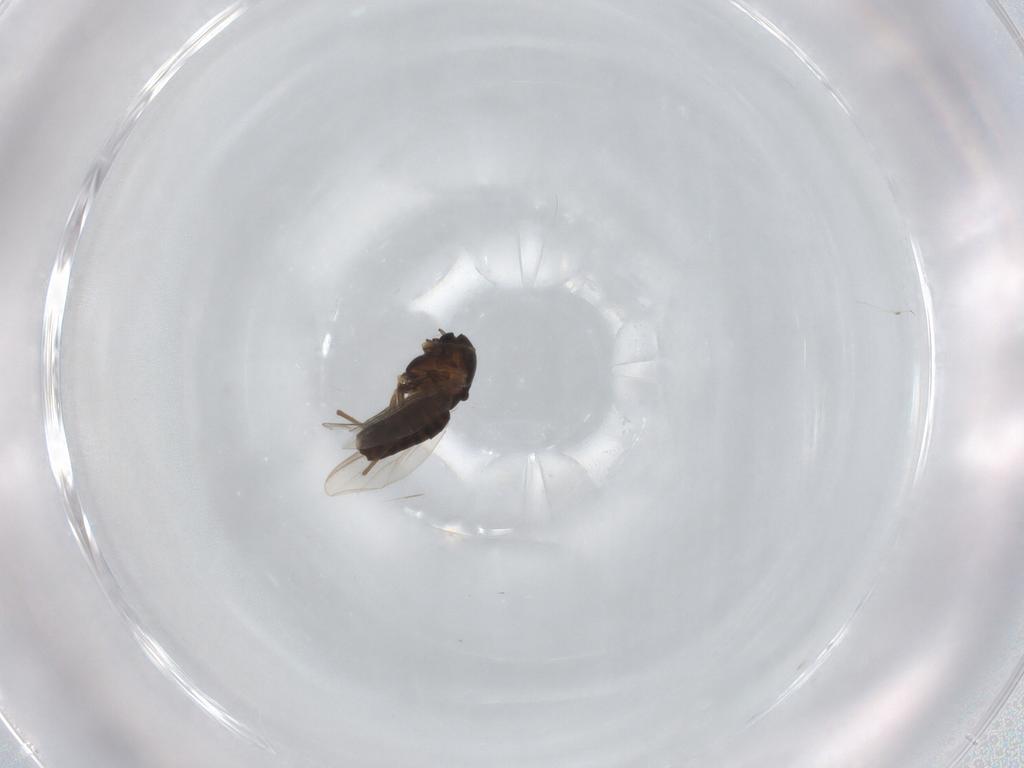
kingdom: Animalia
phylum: Arthropoda
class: Insecta
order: Diptera
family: Chironomidae
